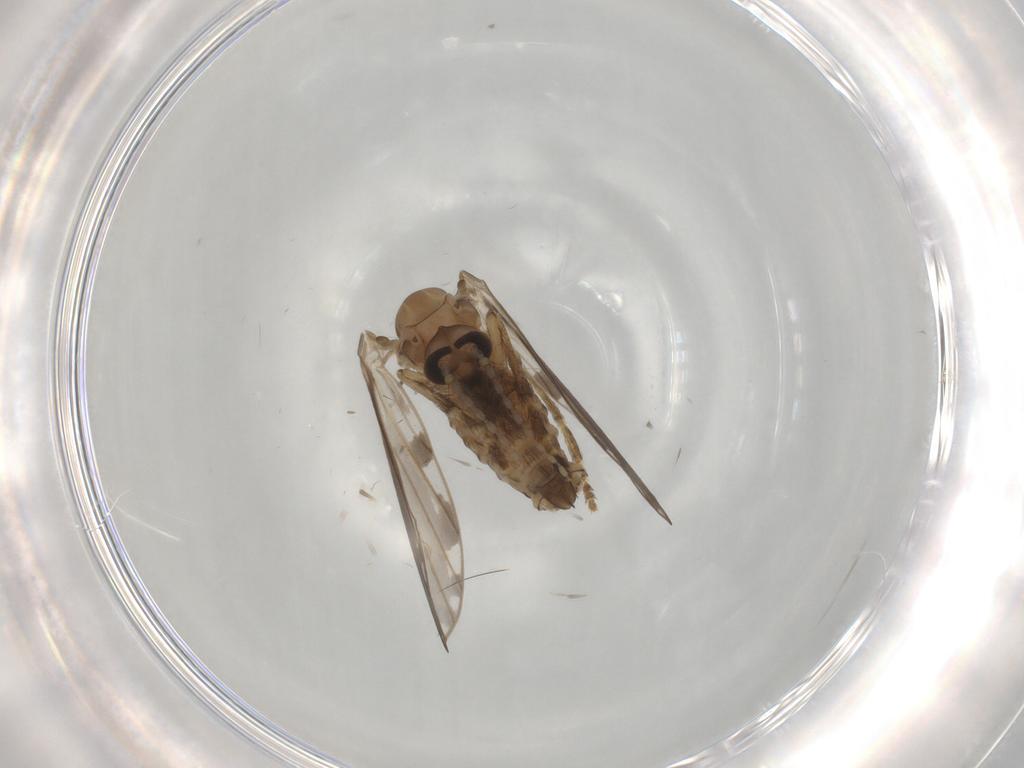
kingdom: Animalia
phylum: Arthropoda
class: Insecta
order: Diptera
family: Psychodidae
